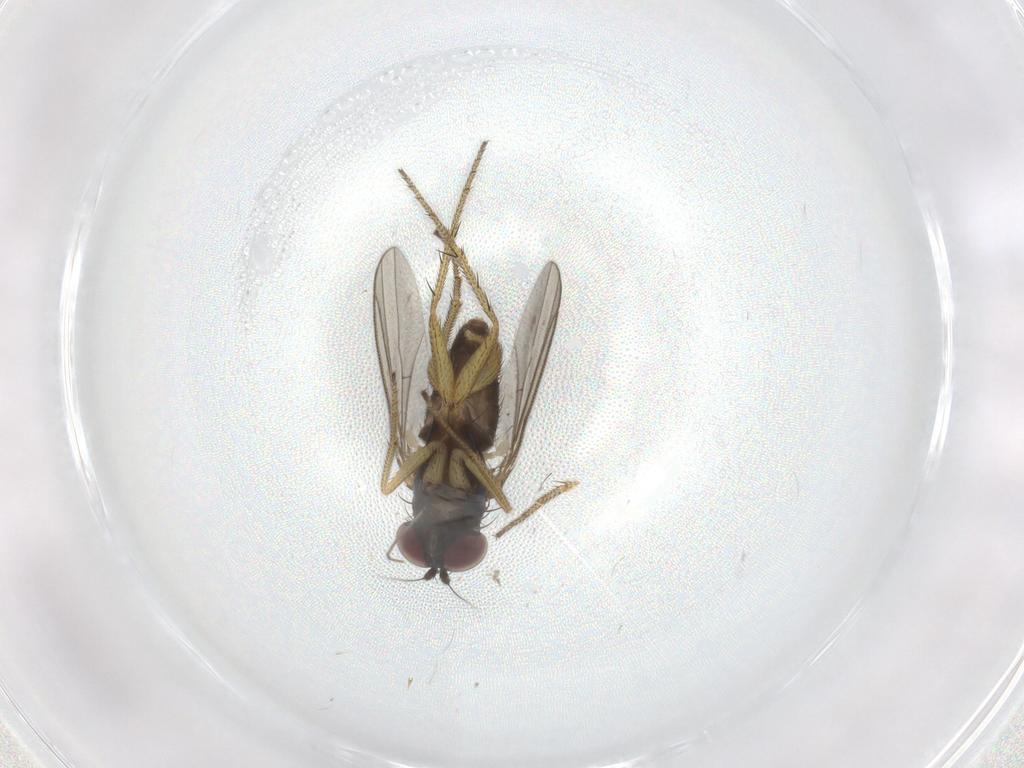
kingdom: Animalia
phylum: Arthropoda
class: Insecta
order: Diptera
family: Dolichopodidae
